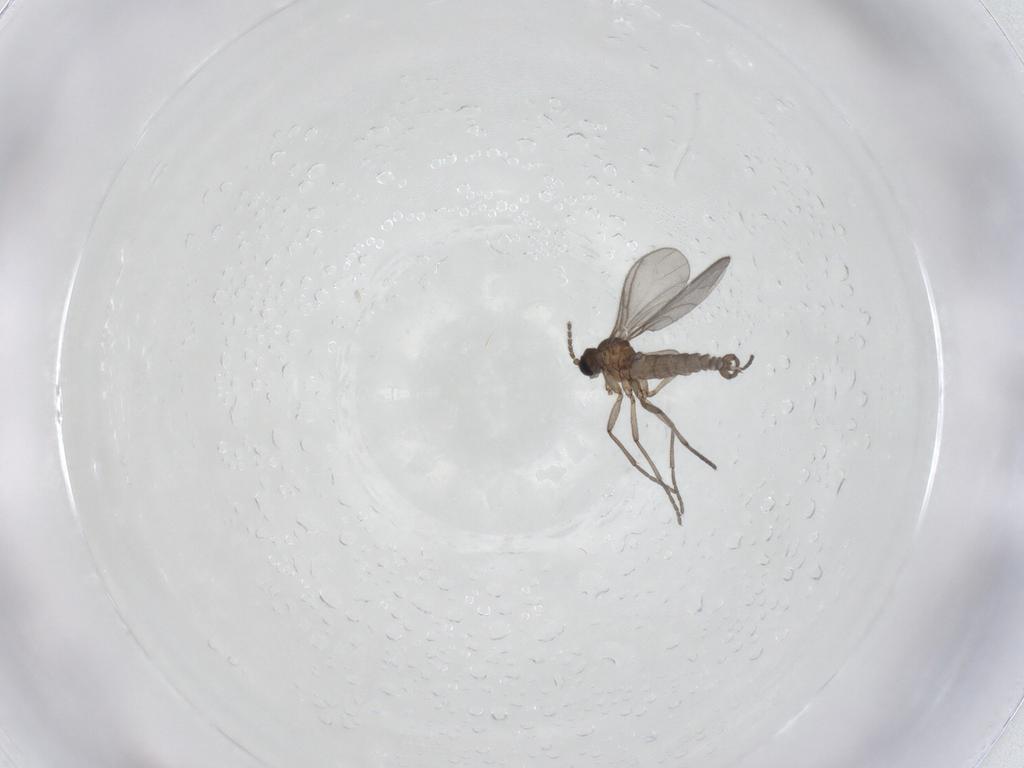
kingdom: Animalia
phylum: Arthropoda
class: Insecta
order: Diptera
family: Sciaridae
